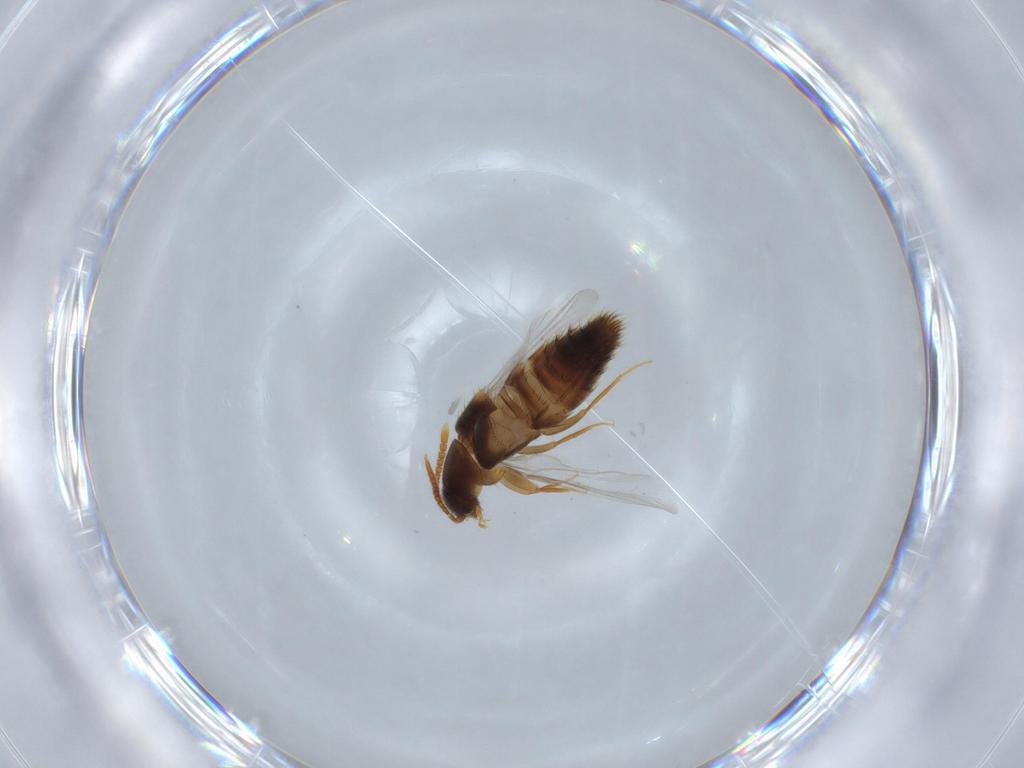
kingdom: Animalia
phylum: Arthropoda
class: Insecta
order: Coleoptera
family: Staphylinidae
